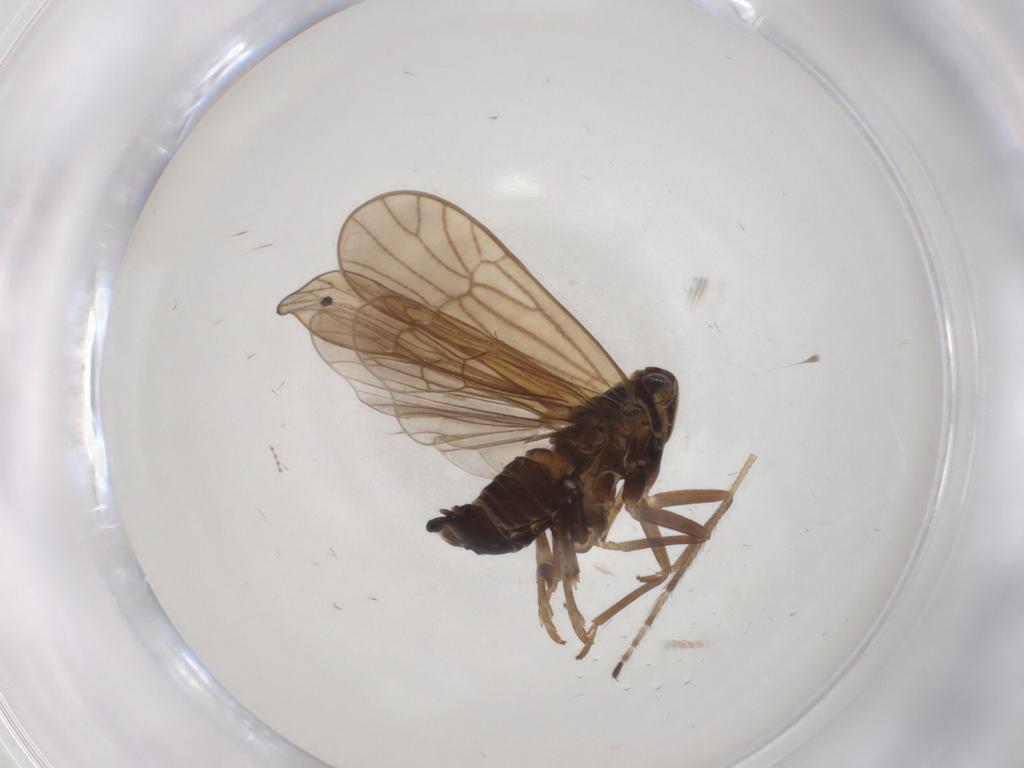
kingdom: Animalia
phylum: Arthropoda
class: Insecta
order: Hemiptera
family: Delphacidae
